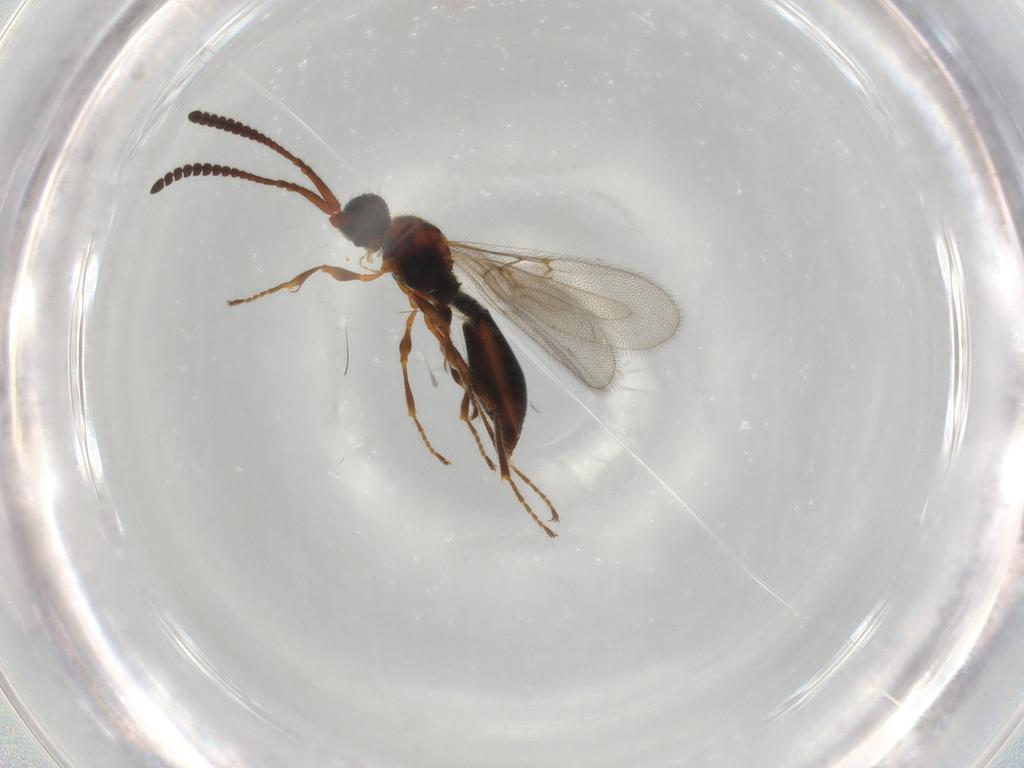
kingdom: Animalia
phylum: Arthropoda
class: Insecta
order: Hymenoptera
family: Diapriidae
